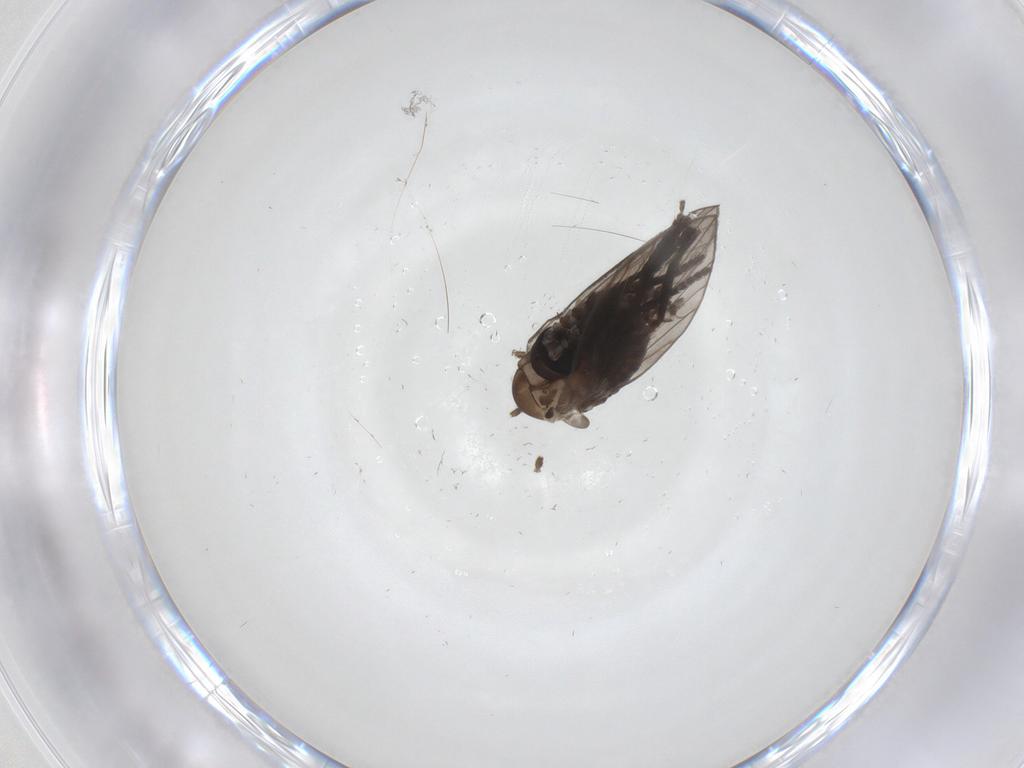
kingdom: Animalia
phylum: Arthropoda
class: Insecta
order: Diptera
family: Psychodidae
